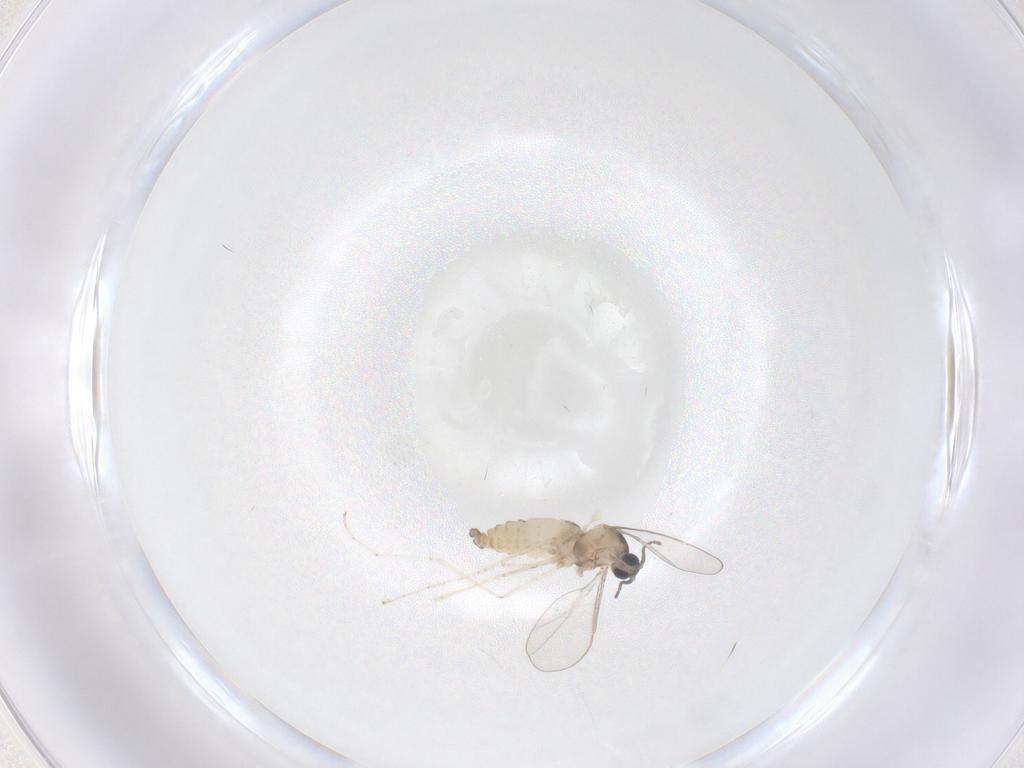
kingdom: Animalia
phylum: Arthropoda
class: Insecta
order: Diptera
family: Cecidomyiidae
